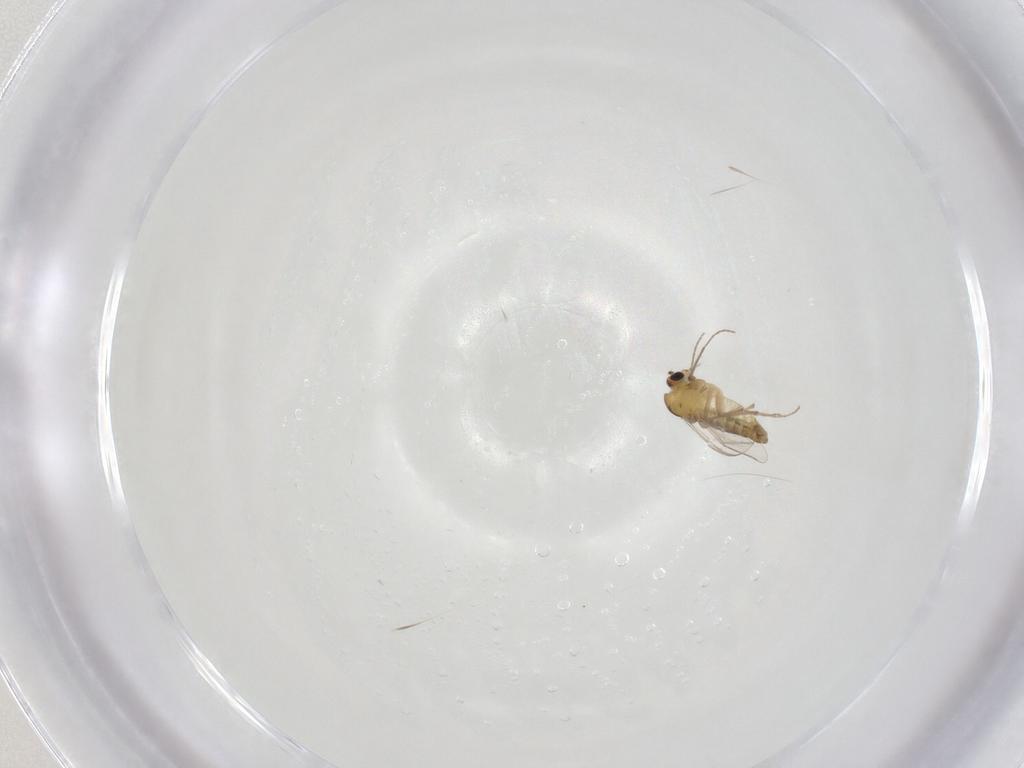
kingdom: Animalia
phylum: Arthropoda
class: Insecta
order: Diptera
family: Chironomidae
